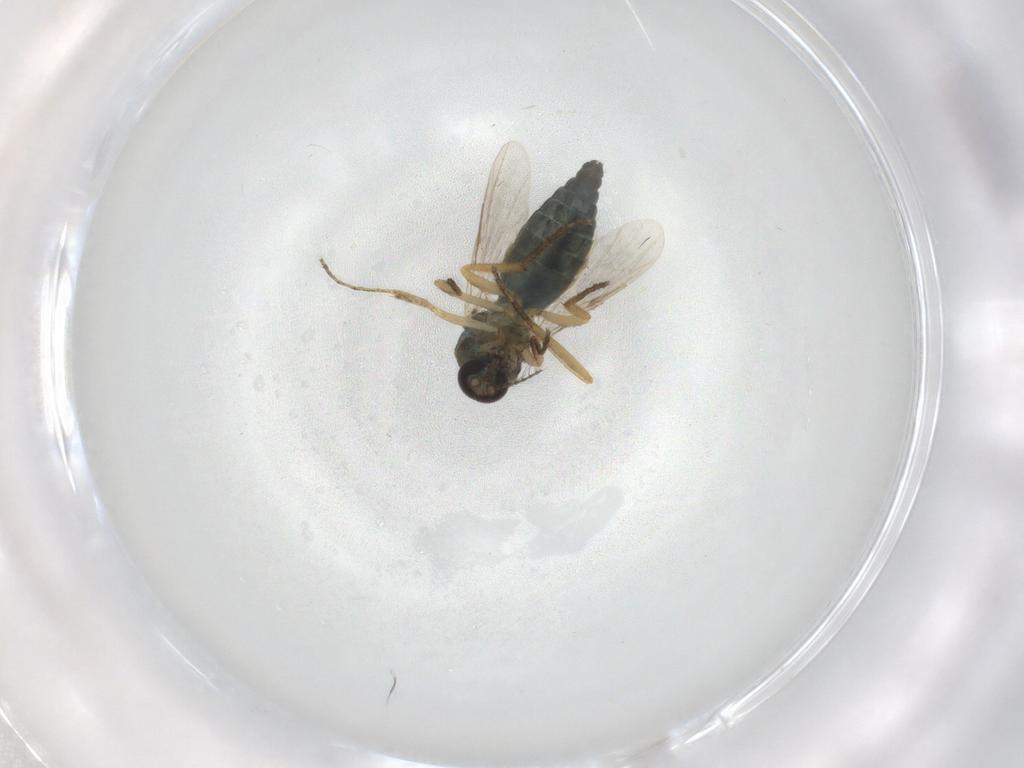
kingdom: Animalia
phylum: Arthropoda
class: Insecta
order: Diptera
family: Ceratopogonidae
